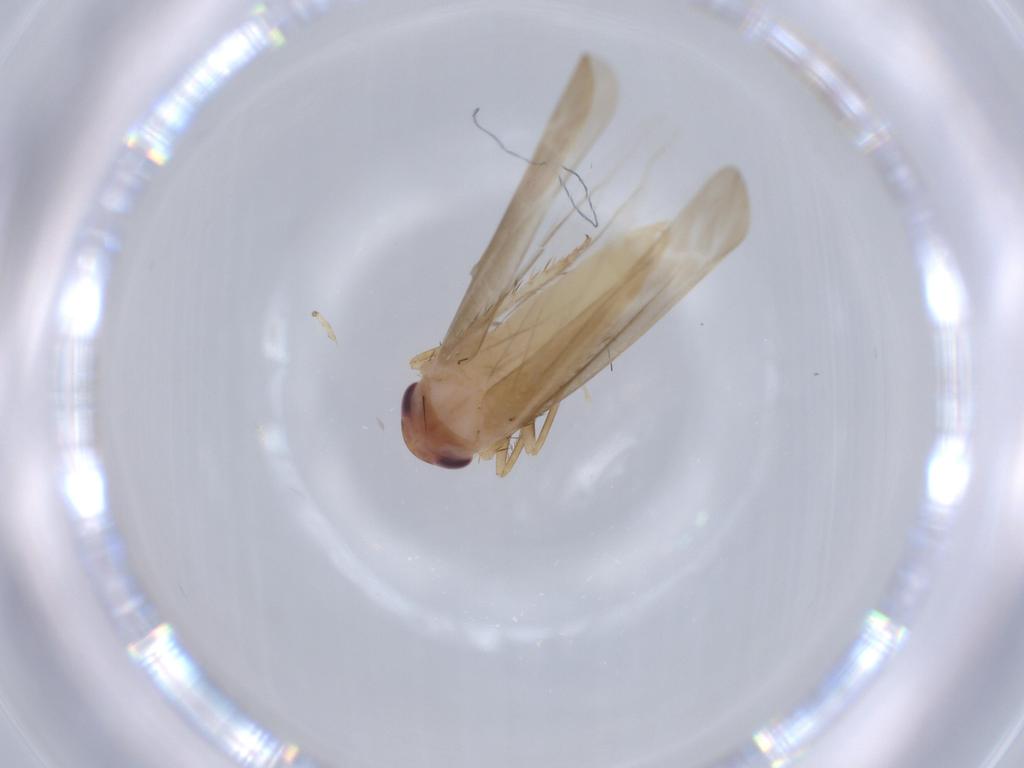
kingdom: Animalia
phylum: Arthropoda
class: Insecta
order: Hemiptera
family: Cicadellidae
